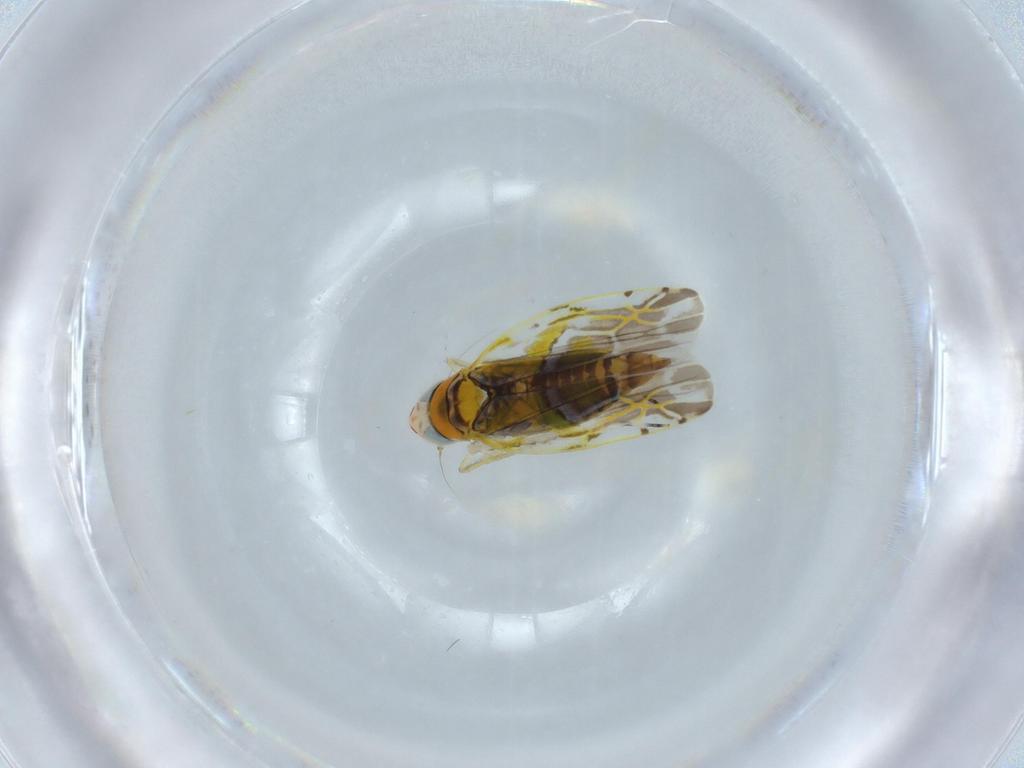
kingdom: Animalia
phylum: Arthropoda
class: Insecta
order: Hemiptera
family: Cicadellidae
